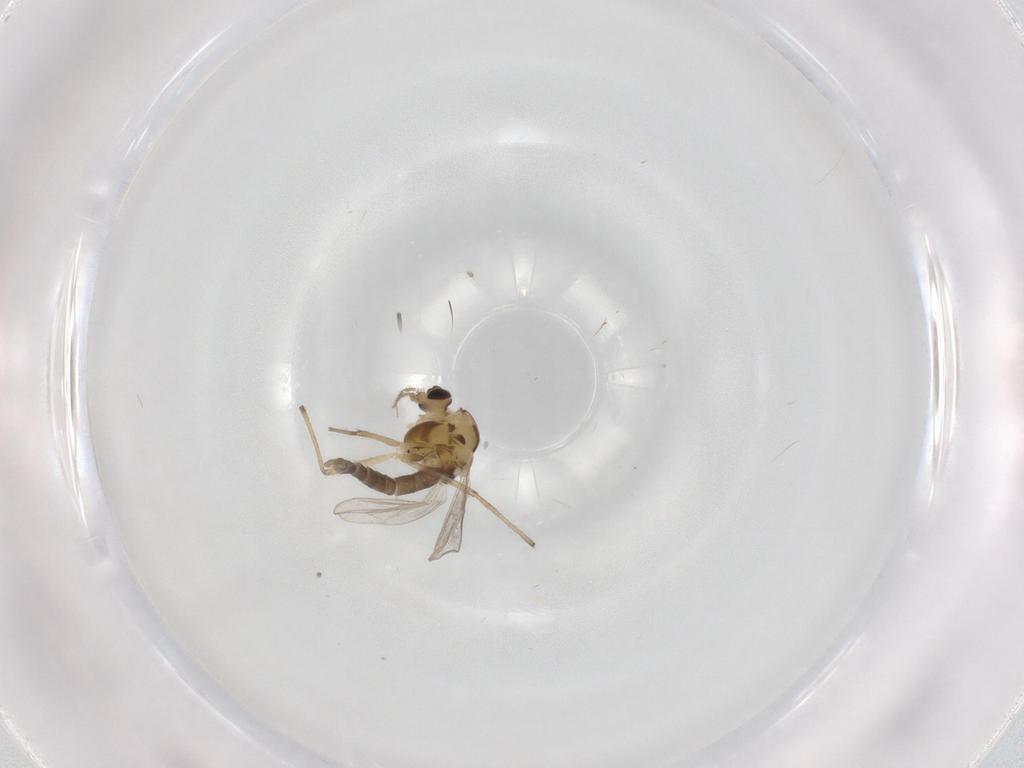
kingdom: Animalia
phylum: Arthropoda
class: Insecta
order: Diptera
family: Chironomidae
